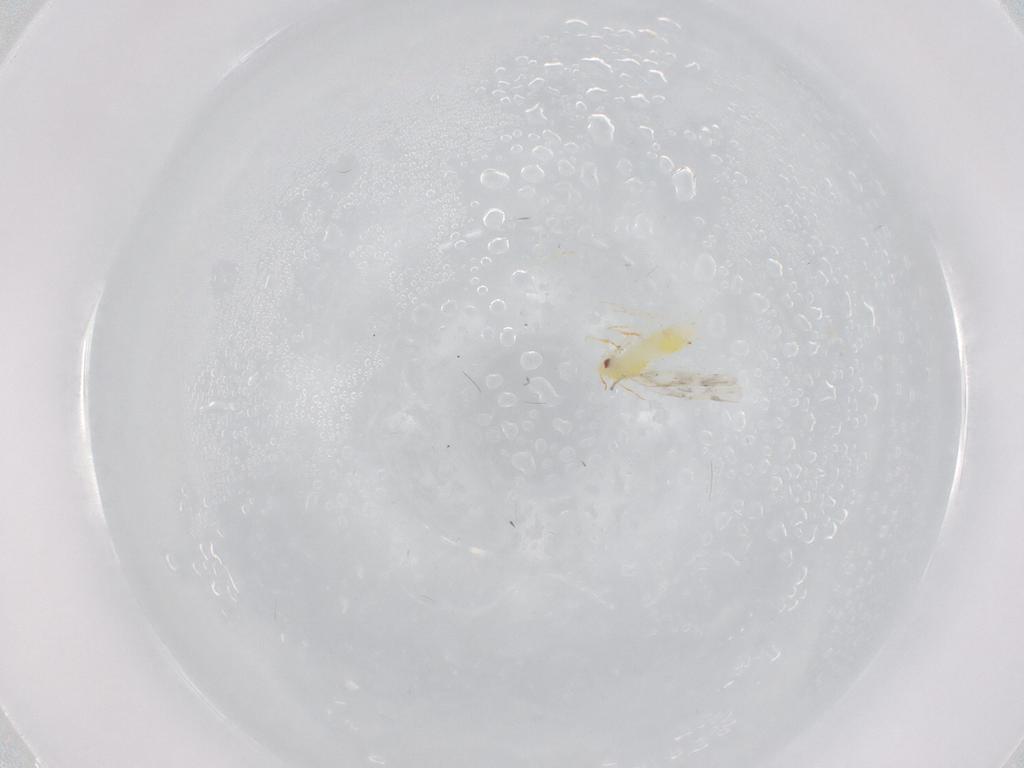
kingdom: Animalia
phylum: Arthropoda
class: Insecta
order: Hemiptera
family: Aleyrodidae
